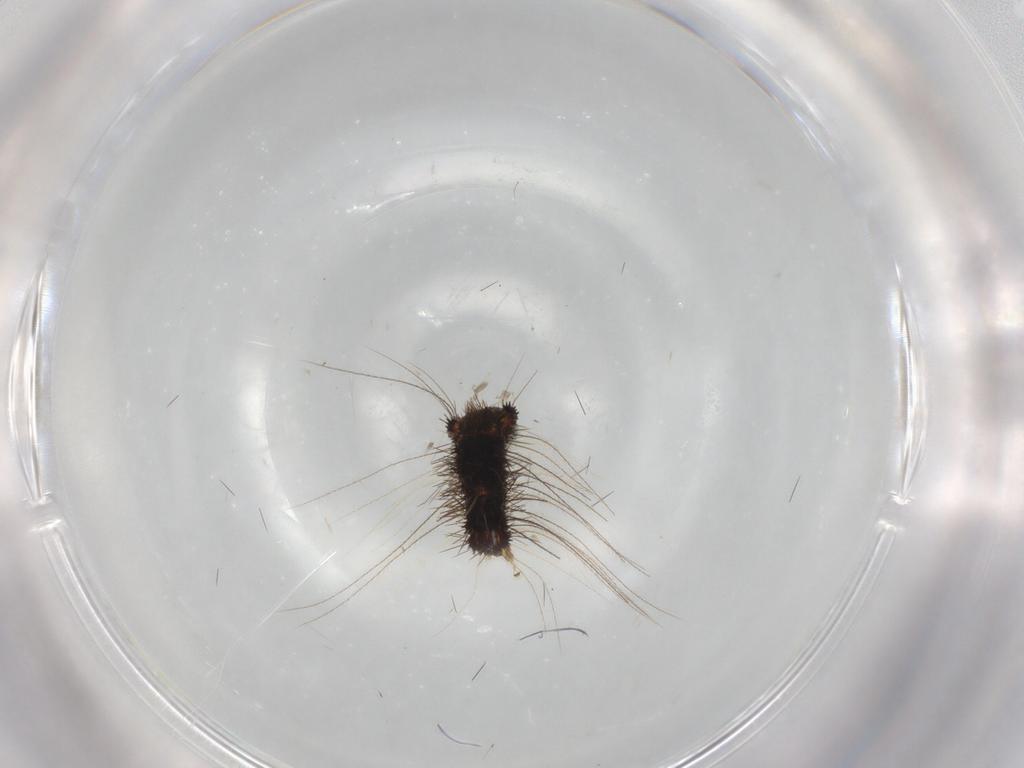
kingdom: Animalia
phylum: Arthropoda
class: Insecta
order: Lepidoptera
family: Erebidae
